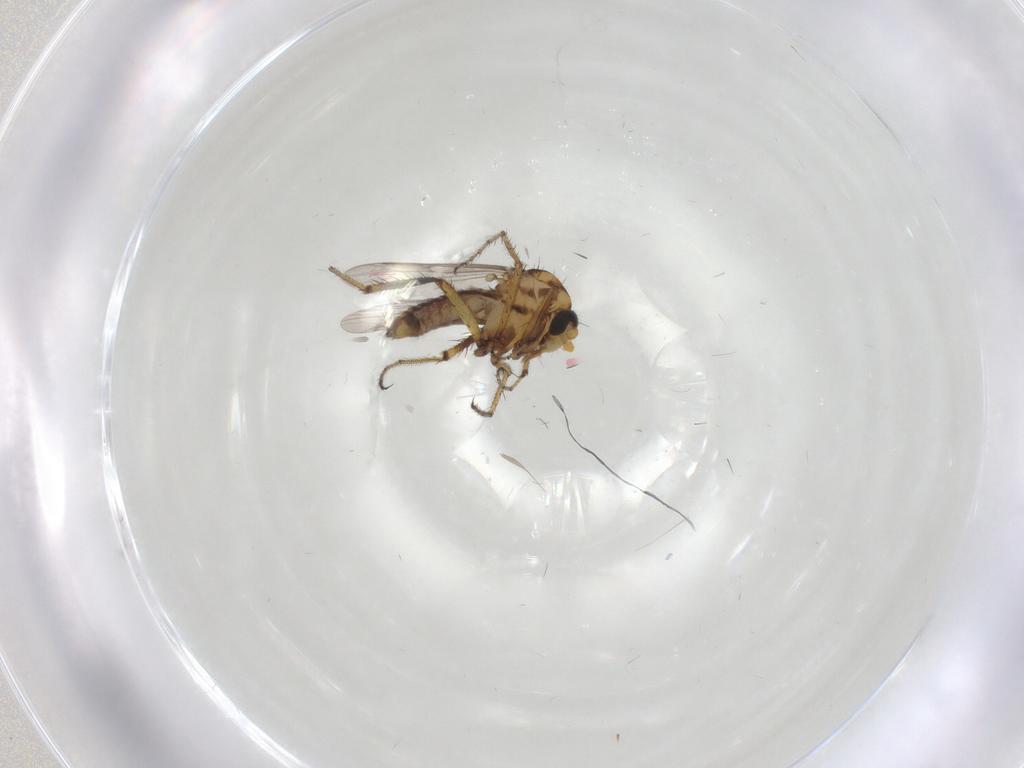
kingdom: Animalia
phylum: Arthropoda
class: Insecta
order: Diptera
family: Ceratopogonidae
